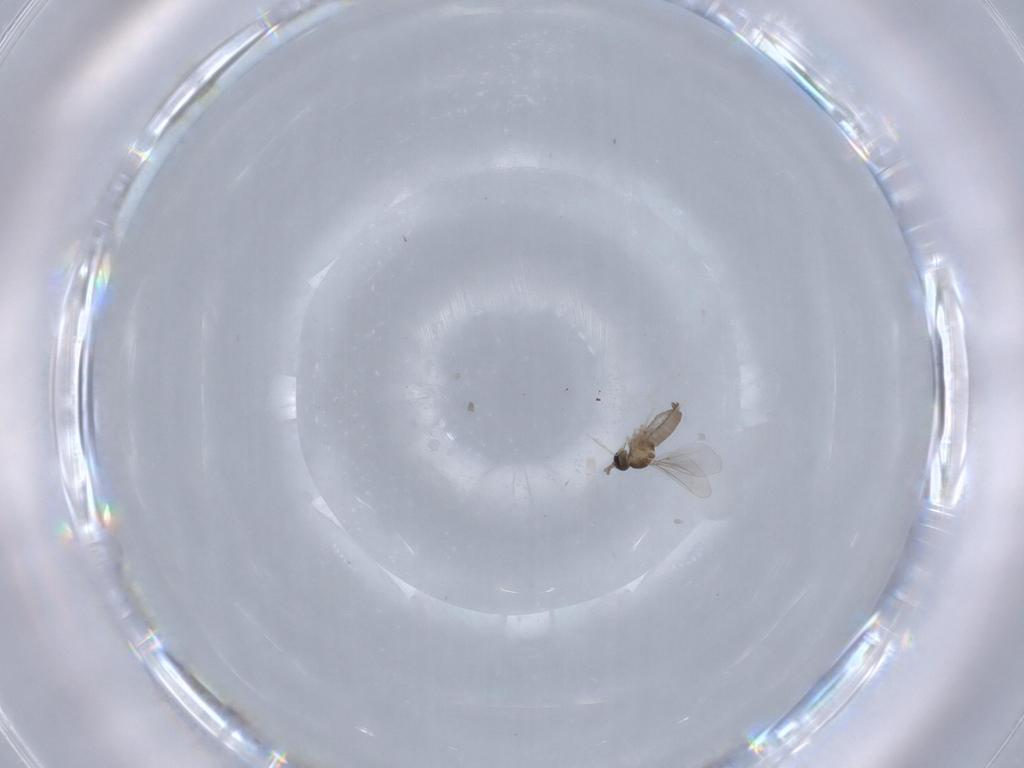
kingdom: Animalia
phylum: Arthropoda
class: Insecta
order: Diptera
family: Cecidomyiidae
